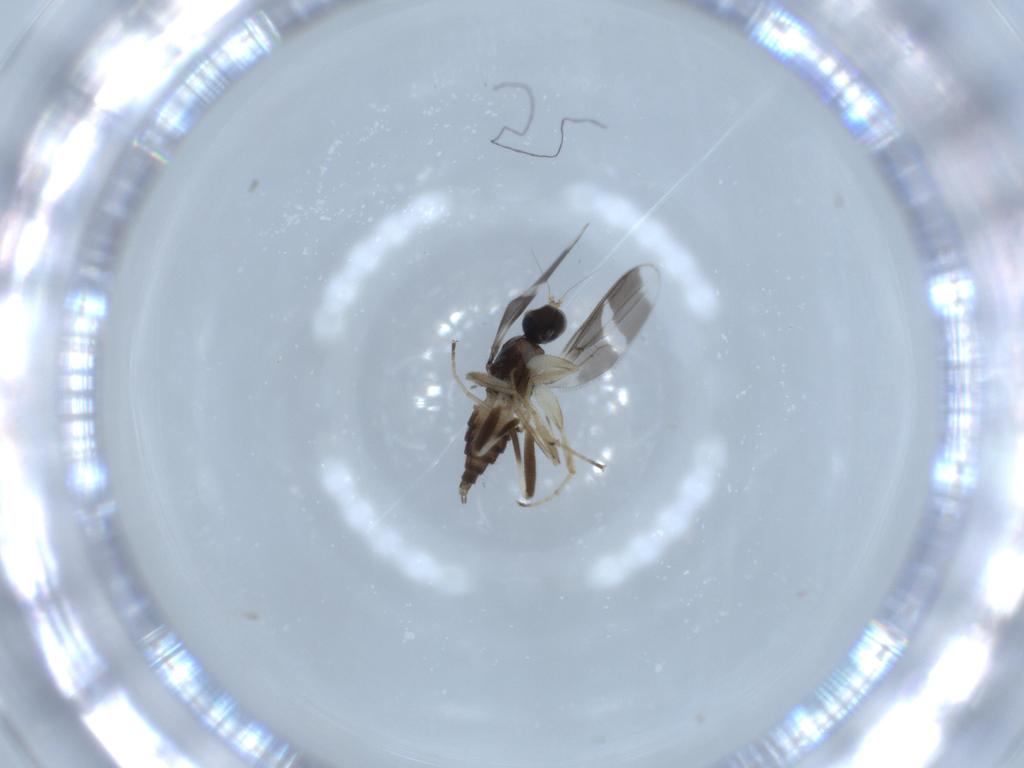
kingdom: Animalia
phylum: Arthropoda
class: Insecta
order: Diptera
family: Hybotidae
